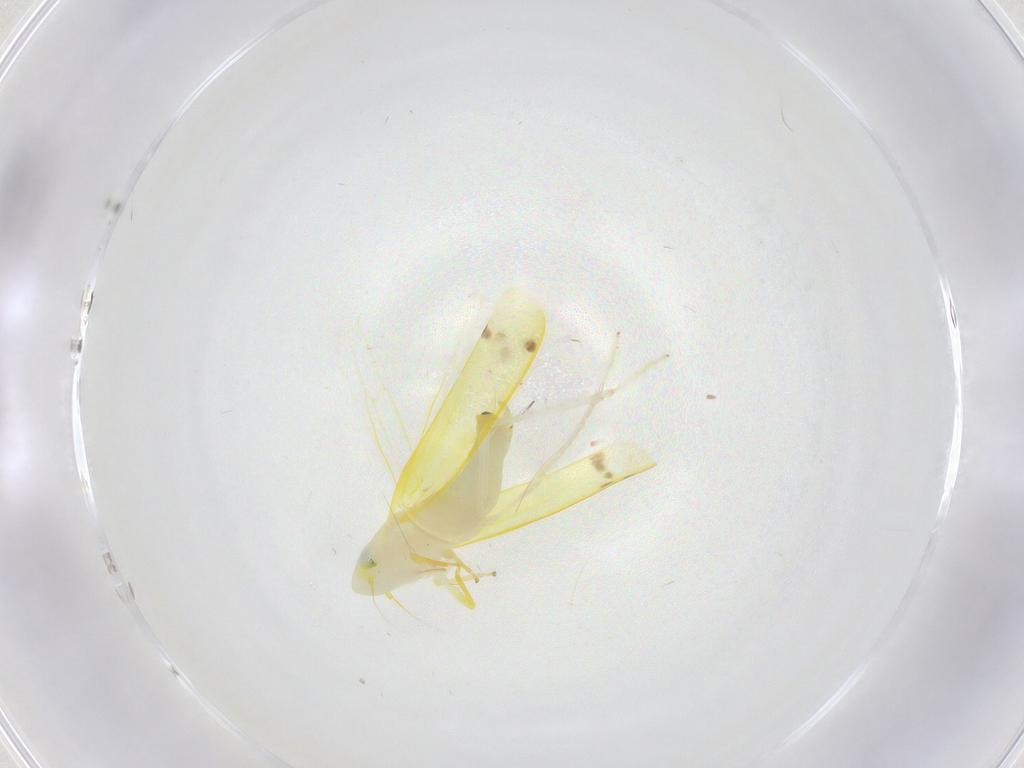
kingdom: Animalia
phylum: Arthropoda
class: Insecta
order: Hemiptera
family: Cicadellidae
